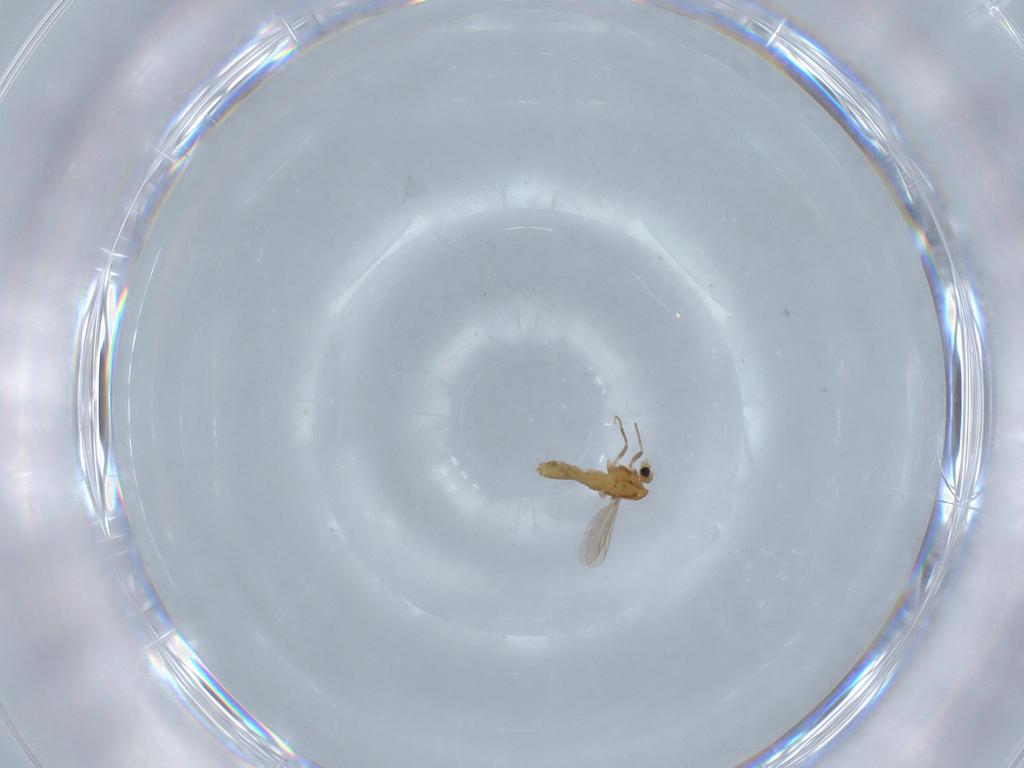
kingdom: Animalia
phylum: Arthropoda
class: Insecta
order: Diptera
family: Chironomidae
